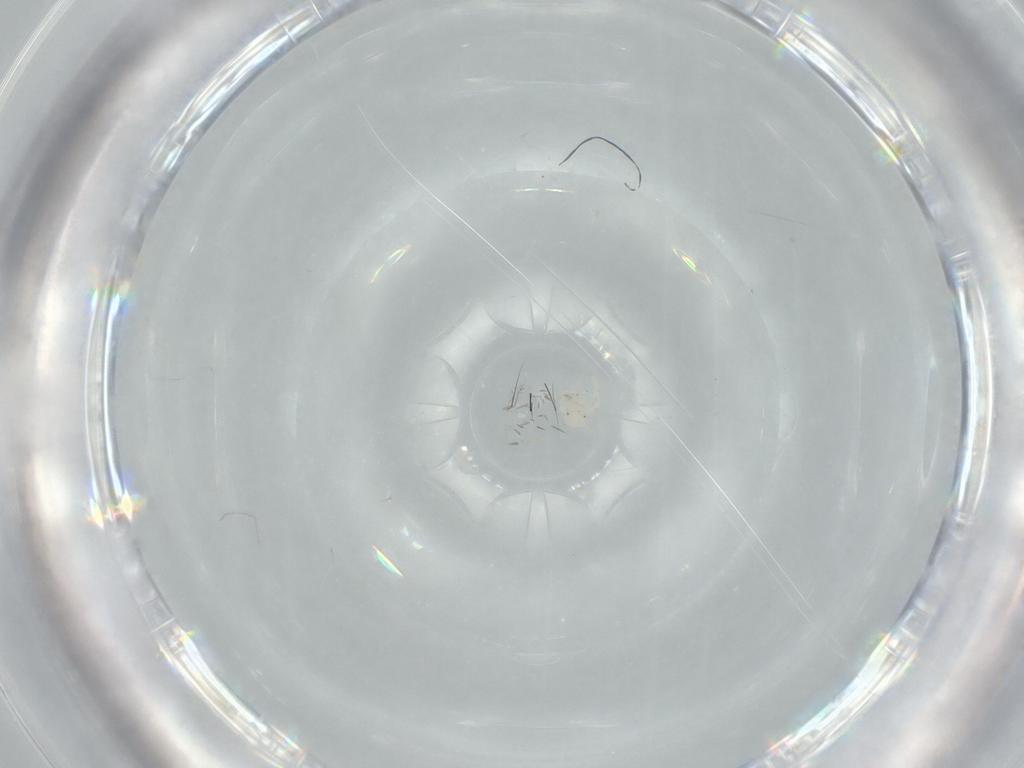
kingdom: Animalia
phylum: Arthropoda
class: Arachnida
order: Trombidiformes
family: Anystidae
